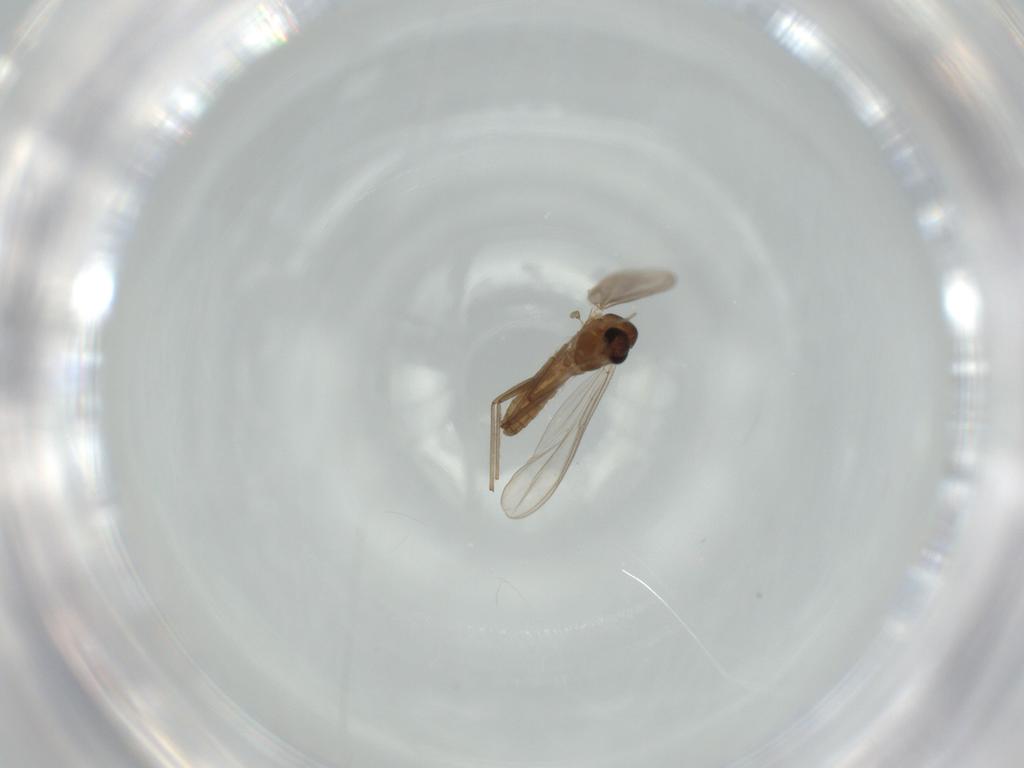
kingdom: Animalia
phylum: Arthropoda
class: Insecta
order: Diptera
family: Chironomidae
